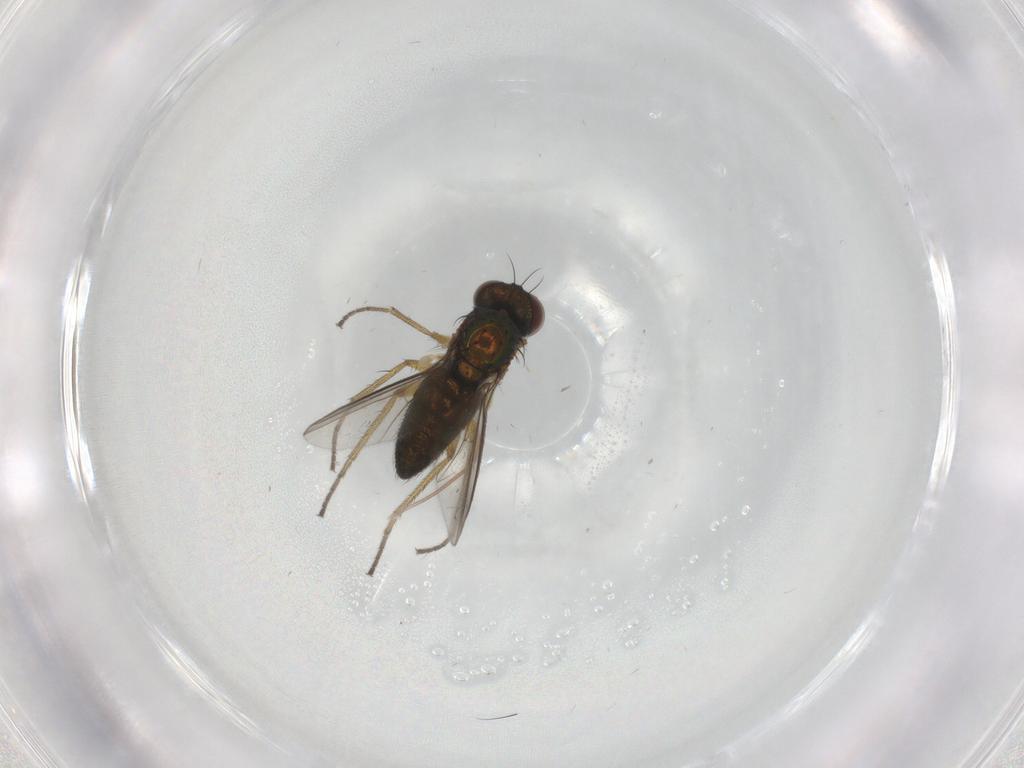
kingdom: Animalia
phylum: Arthropoda
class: Insecta
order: Diptera
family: Dolichopodidae
